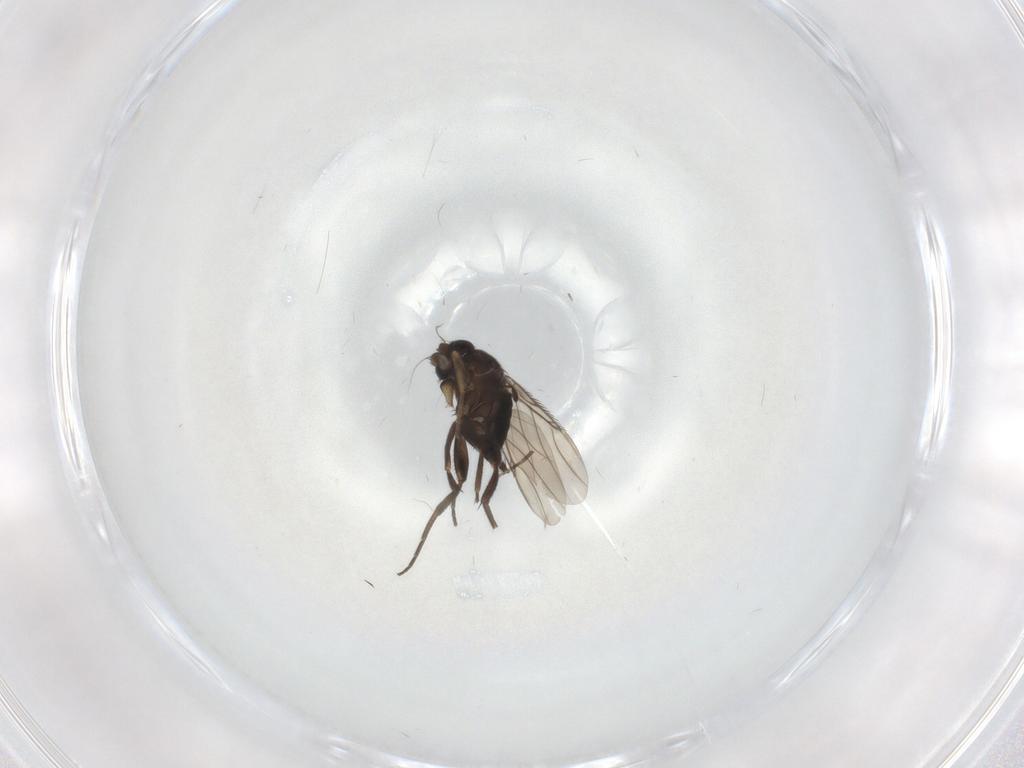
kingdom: Animalia
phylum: Arthropoda
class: Insecta
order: Diptera
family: Limoniidae
